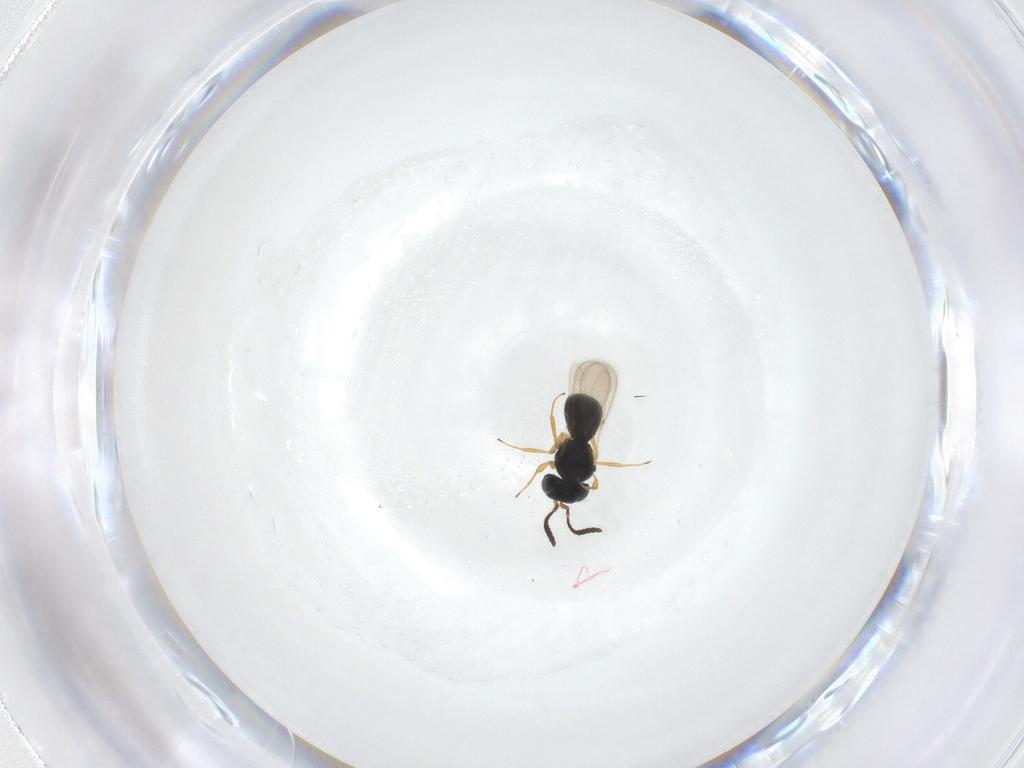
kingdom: Animalia
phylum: Arthropoda
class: Insecta
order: Hymenoptera
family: Scelionidae
